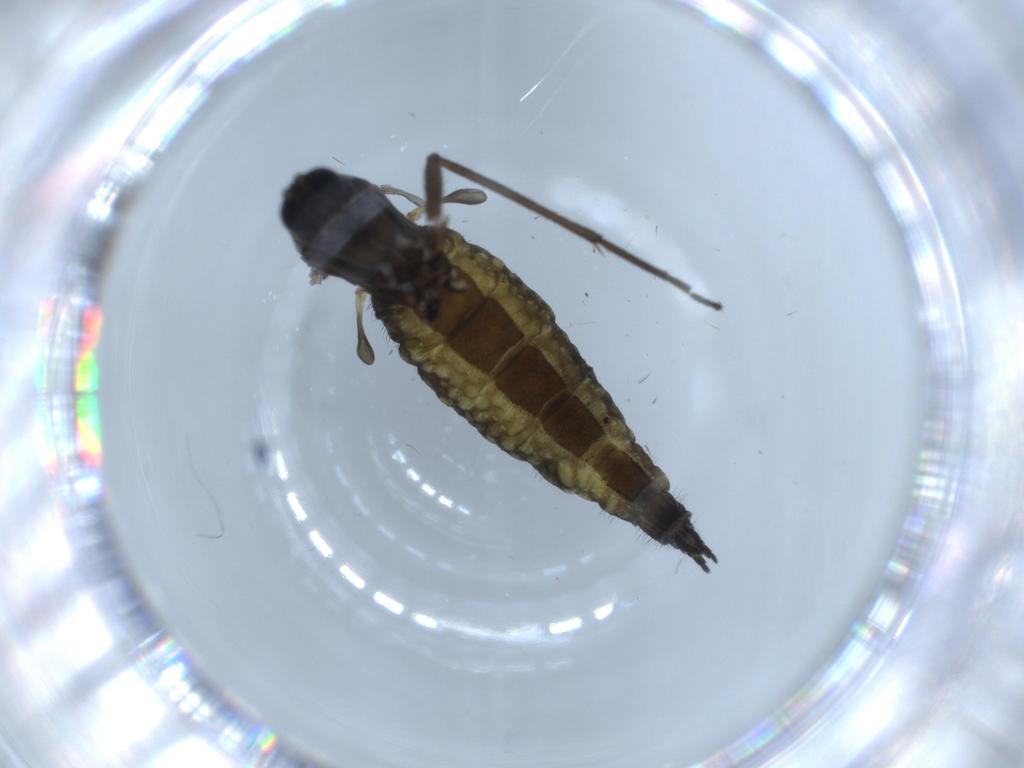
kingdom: Animalia
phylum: Arthropoda
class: Insecta
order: Diptera
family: Sciaridae
